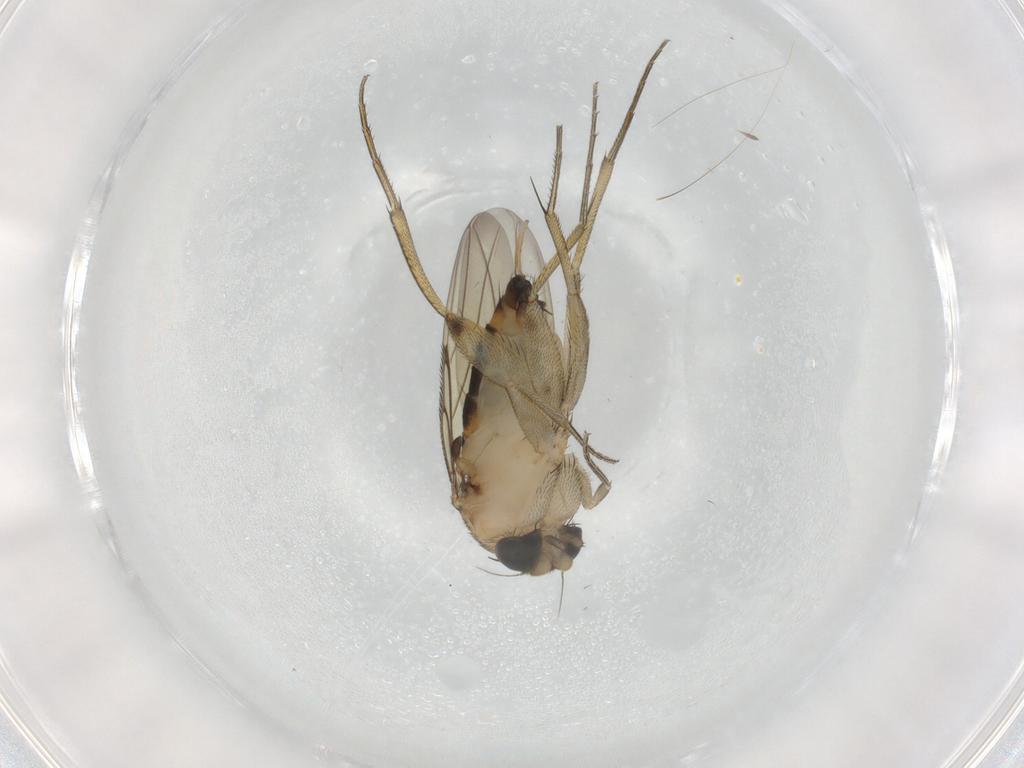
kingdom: Animalia
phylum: Arthropoda
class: Insecta
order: Diptera
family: Phoridae
